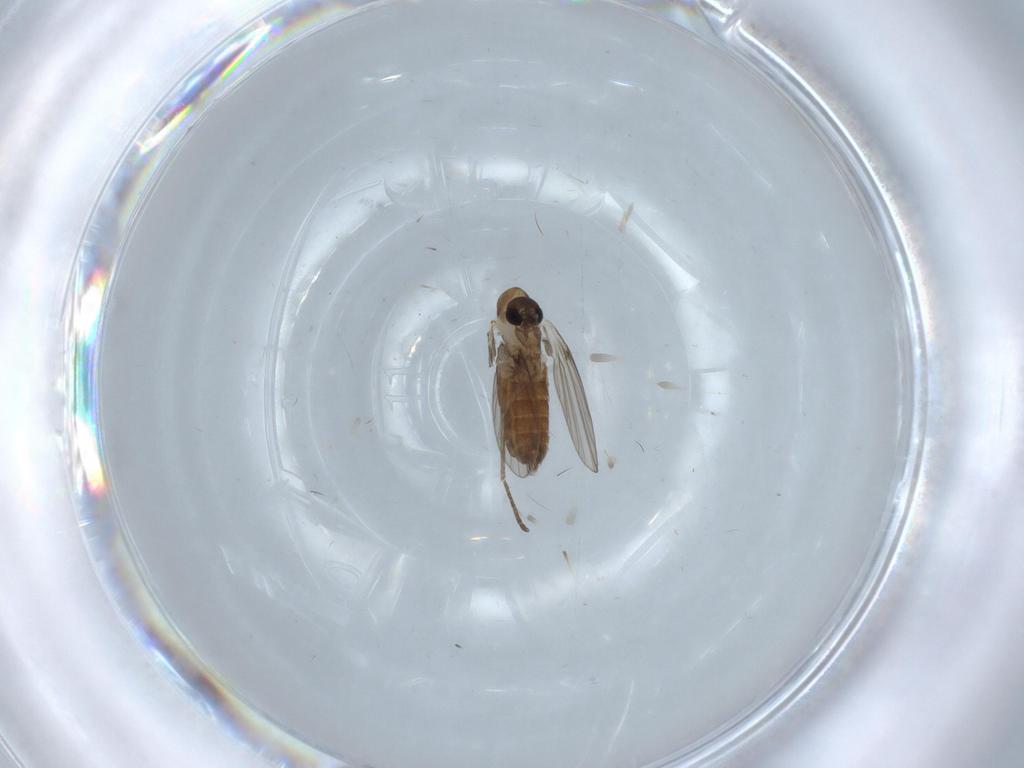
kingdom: Animalia
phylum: Arthropoda
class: Insecta
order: Diptera
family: Psychodidae
